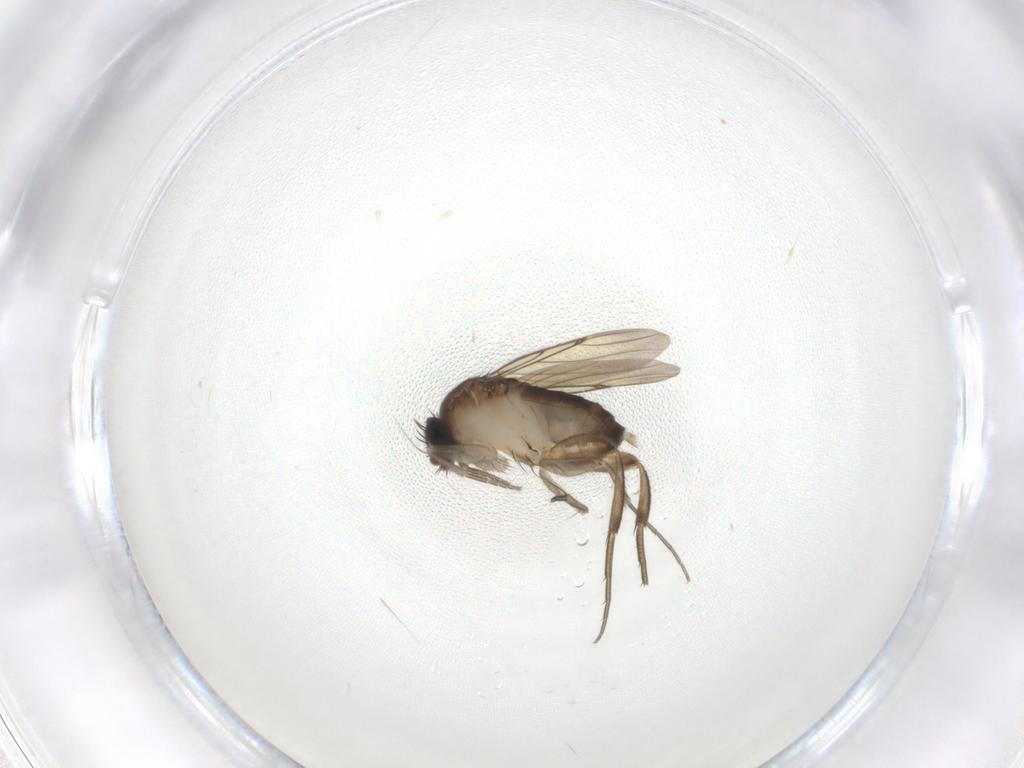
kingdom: Animalia
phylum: Arthropoda
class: Insecta
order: Diptera
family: Phoridae
